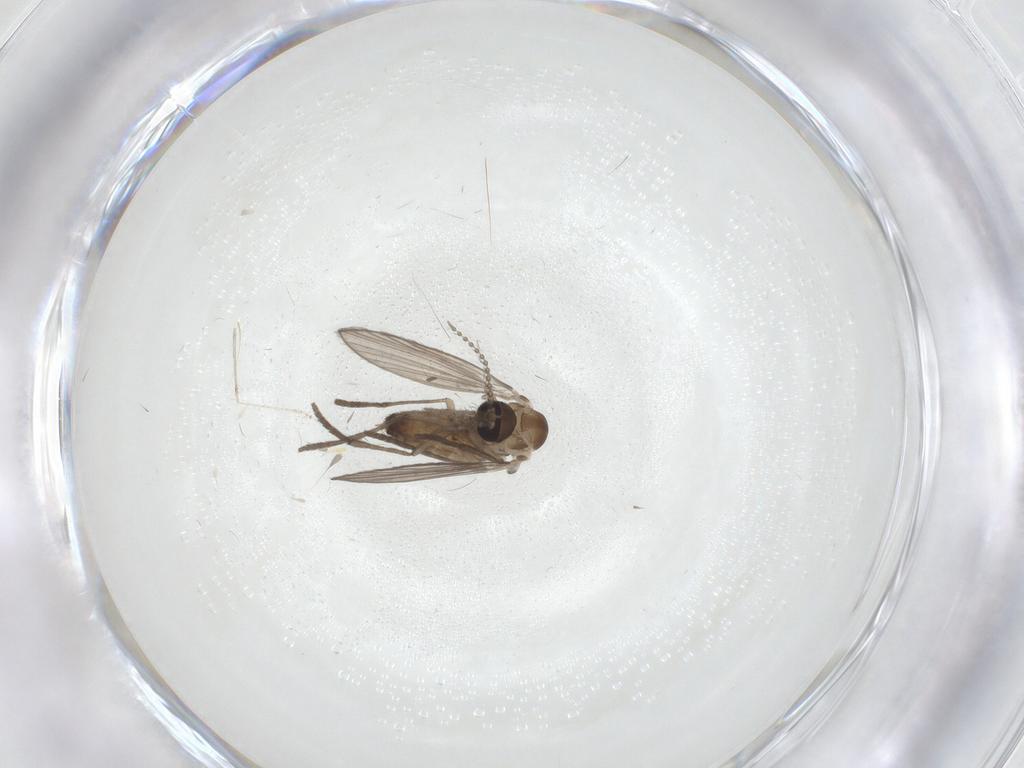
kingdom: Animalia
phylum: Arthropoda
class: Insecta
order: Diptera
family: Psychodidae
